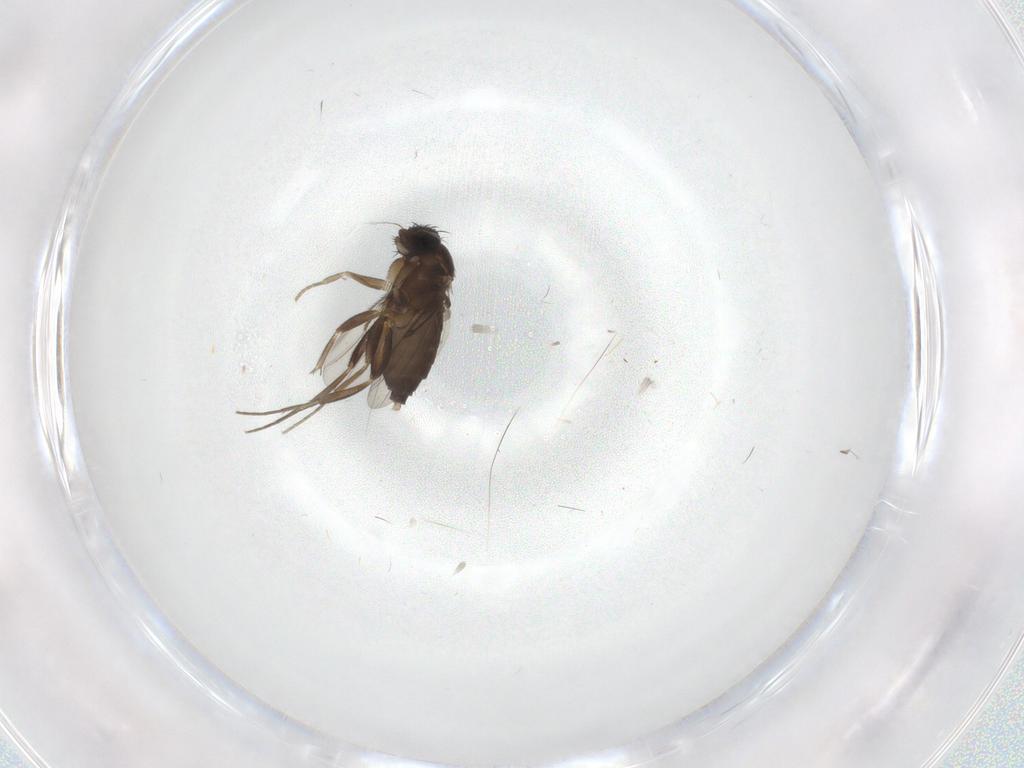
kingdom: Animalia
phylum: Arthropoda
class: Insecta
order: Diptera
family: Phoridae
